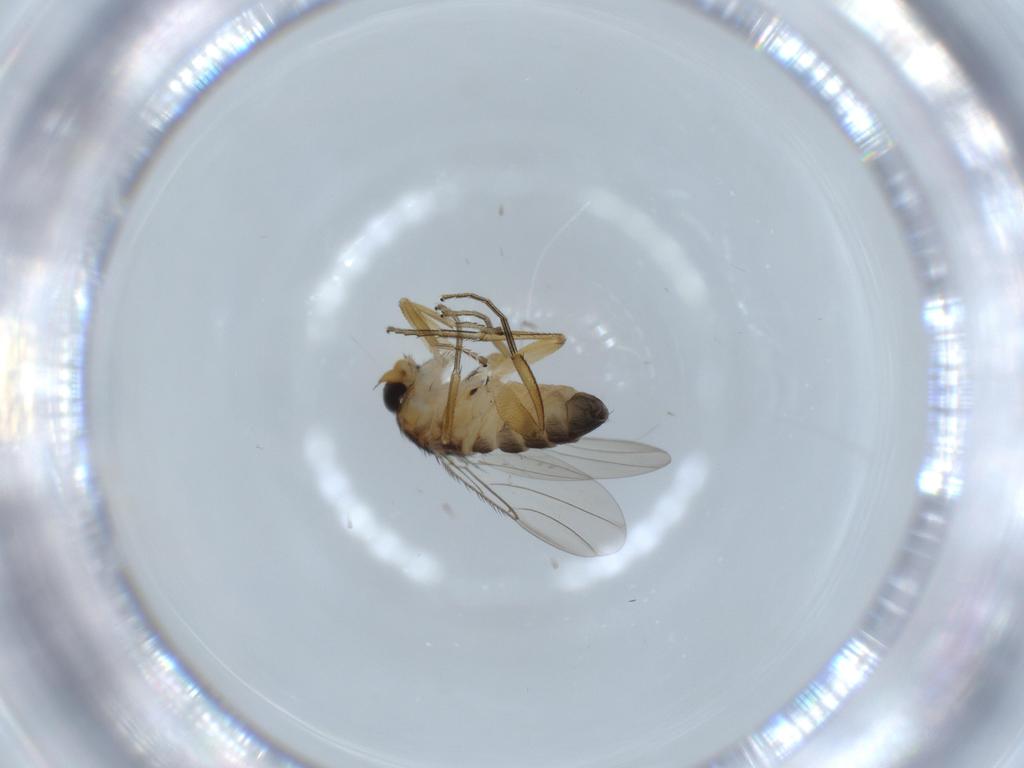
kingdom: Animalia
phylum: Arthropoda
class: Insecta
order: Diptera
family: Phoridae
